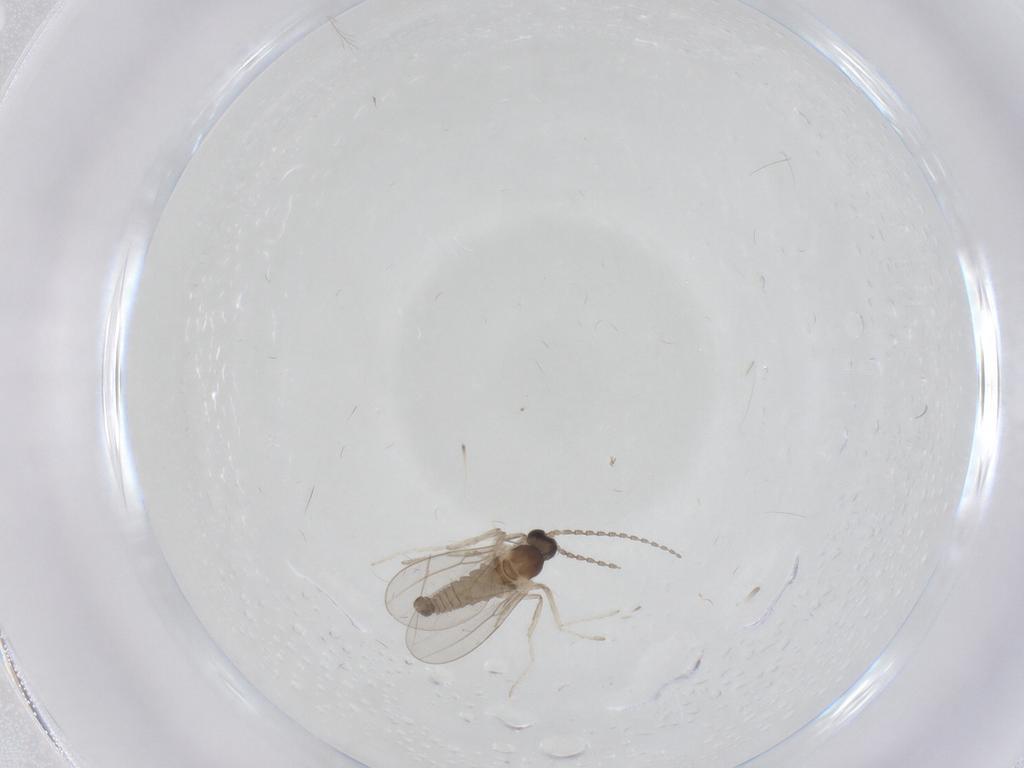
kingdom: Animalia
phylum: Arthropoda
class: Insecta
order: Diptera
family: Cecidomyiidae
